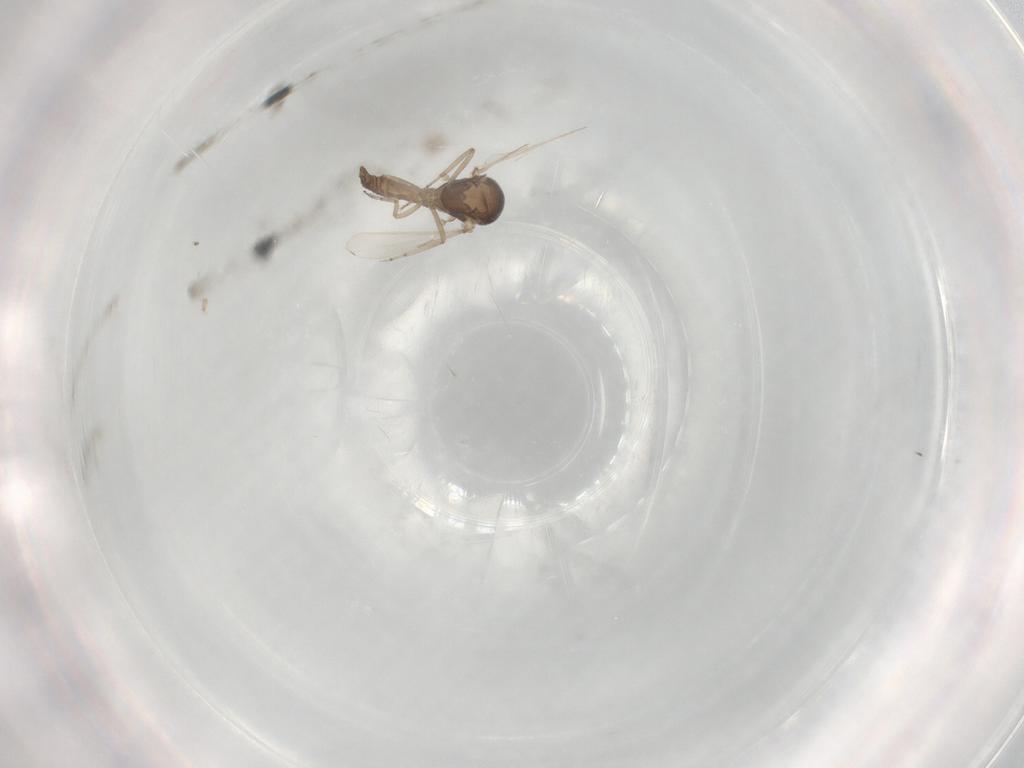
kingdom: Animalia
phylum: Arthropoda
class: Insecta
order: Diptera
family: Ceratopogonidae
